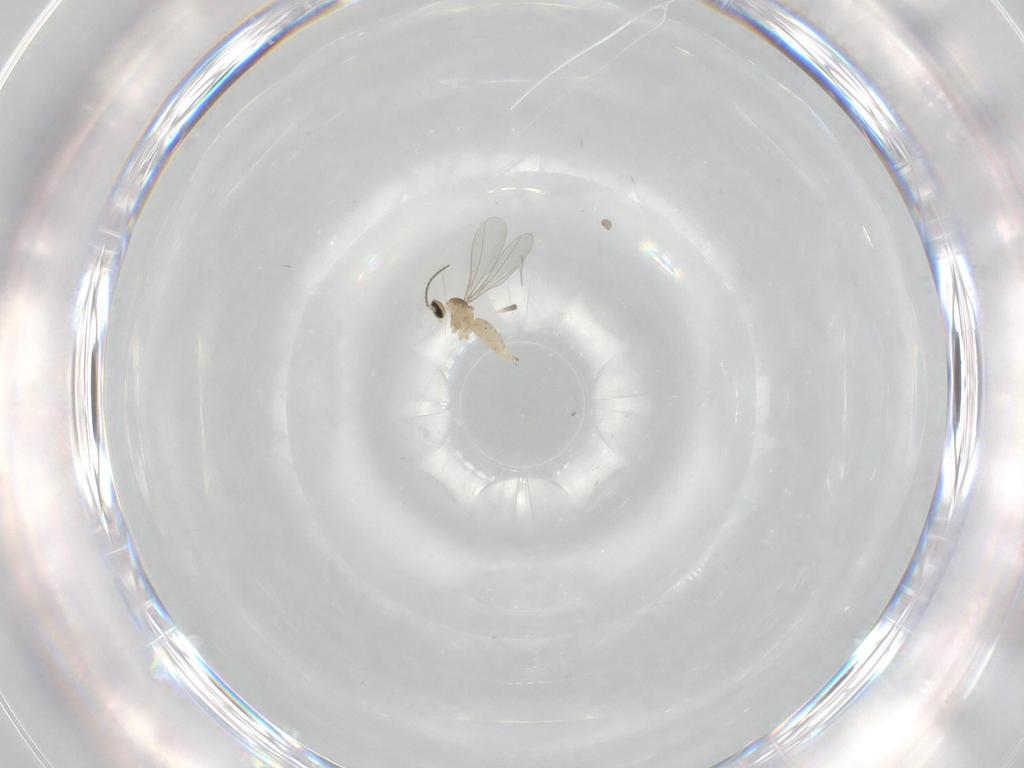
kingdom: Animalia
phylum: Arthropoda
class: Insecta
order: Diptera
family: Cecidomyiidae
